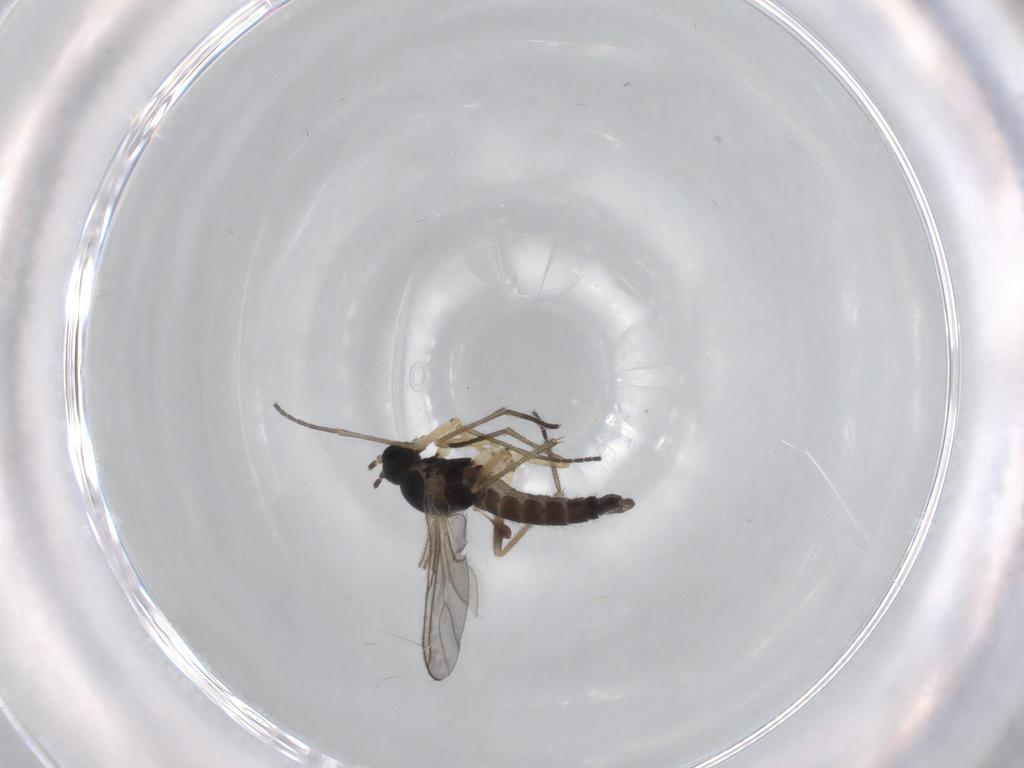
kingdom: Animalia
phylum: Arthropoda
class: Insecta
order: Diptera
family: Sciaridae
